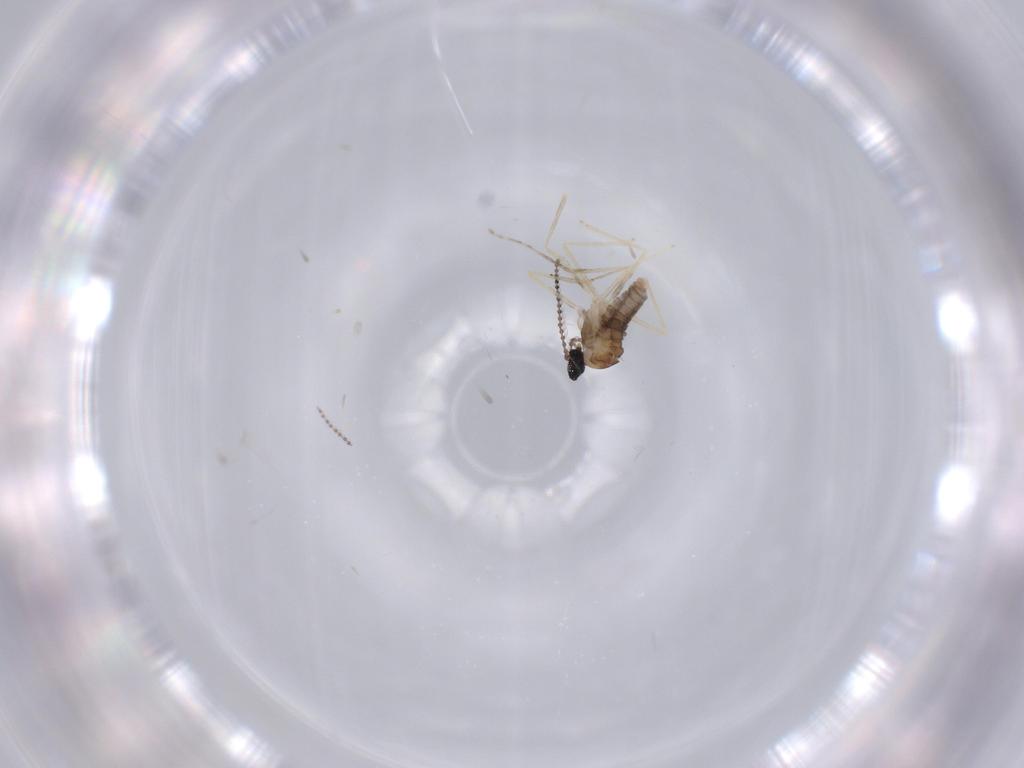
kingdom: Animalia
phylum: Arthropoda
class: Insecta
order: Diptera
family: Cecidomyiidae
